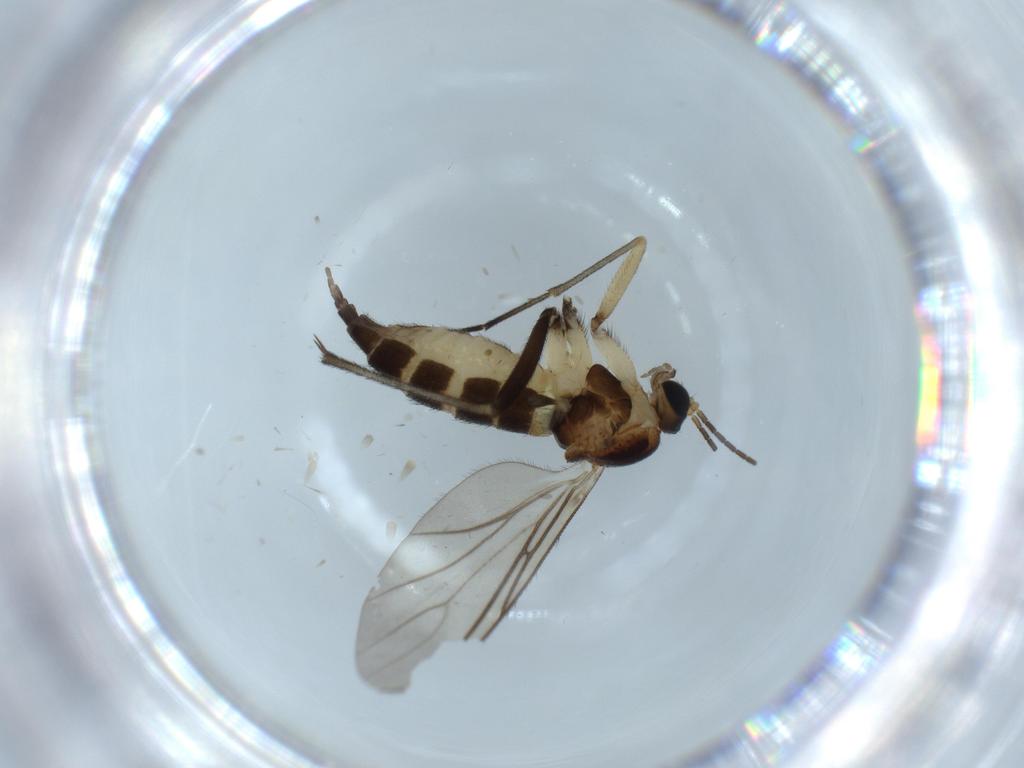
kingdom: Animalia
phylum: Arthropoda
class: Insecta
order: Diptera
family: Sciaridae
